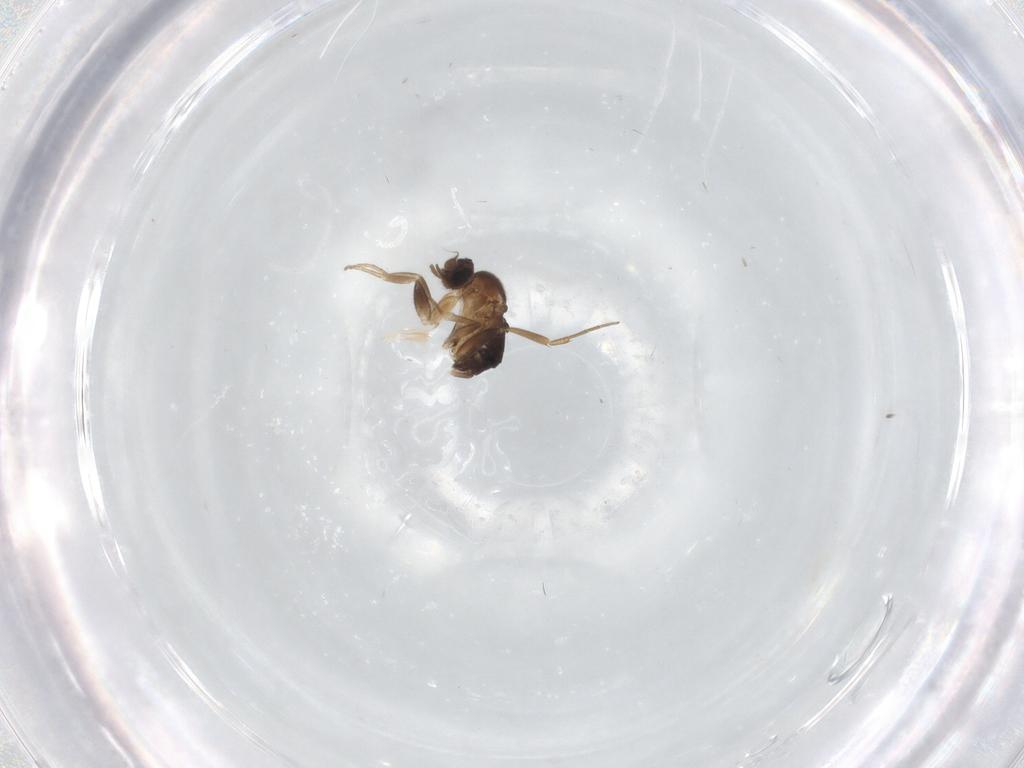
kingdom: Animalia
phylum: Arthropoda
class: Insecta
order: Diptera
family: Phoridae
